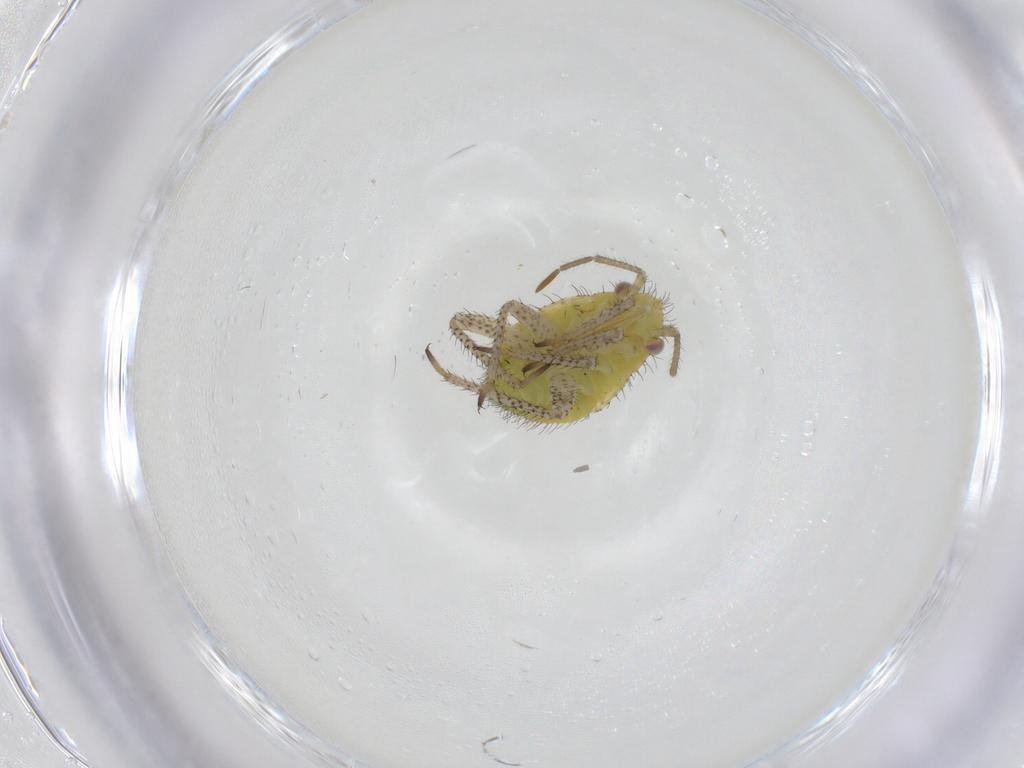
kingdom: Animalia
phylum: Arthropoda
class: Insecta
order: Hemiptera
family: Miridae
